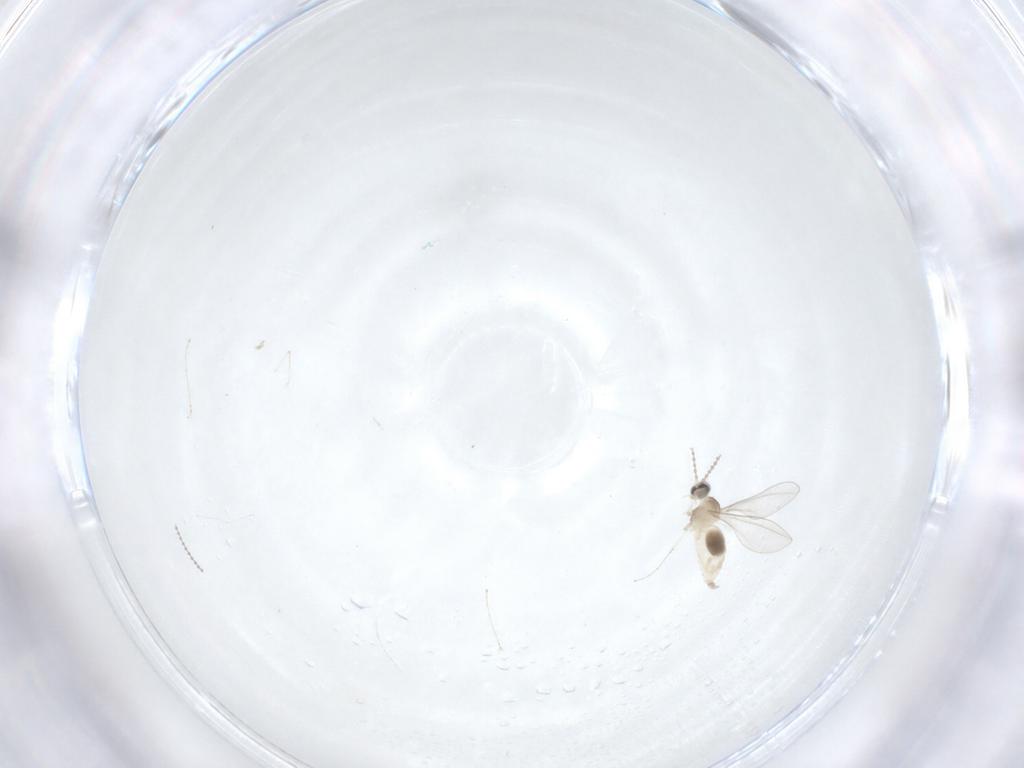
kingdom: Animalia
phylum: Arthropoda
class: Insecta
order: Diptera
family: Cecidomyiidae
